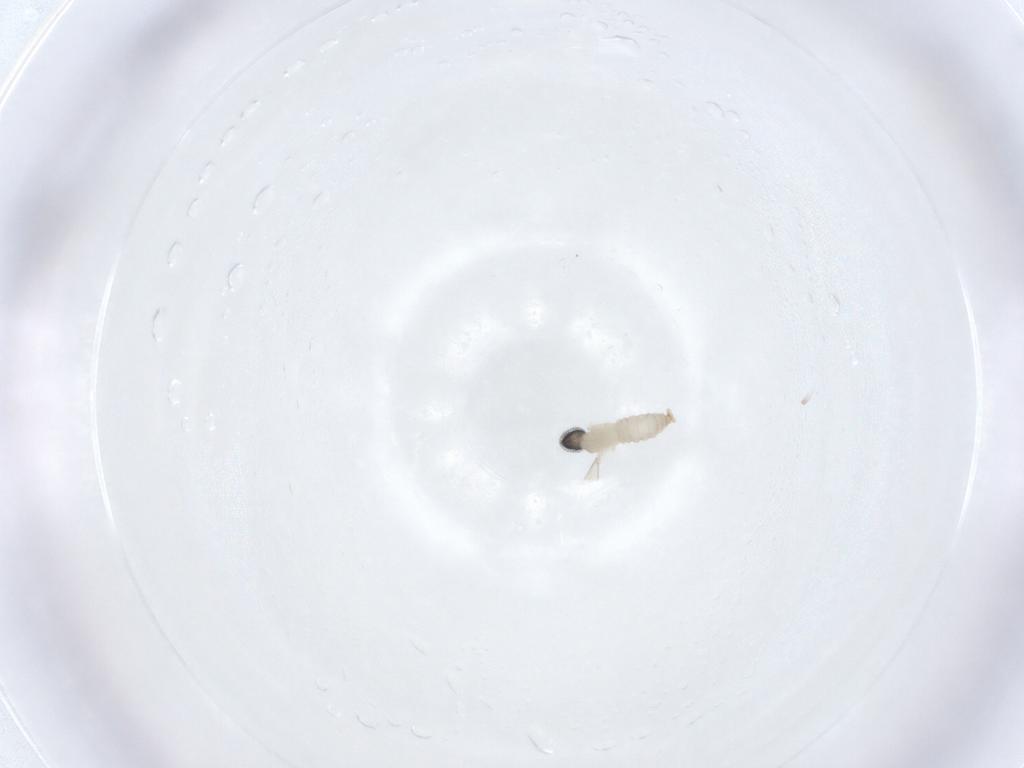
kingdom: Animalia
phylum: Arthropoda
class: Insecta
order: Diptera
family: Cecidomyiidae
